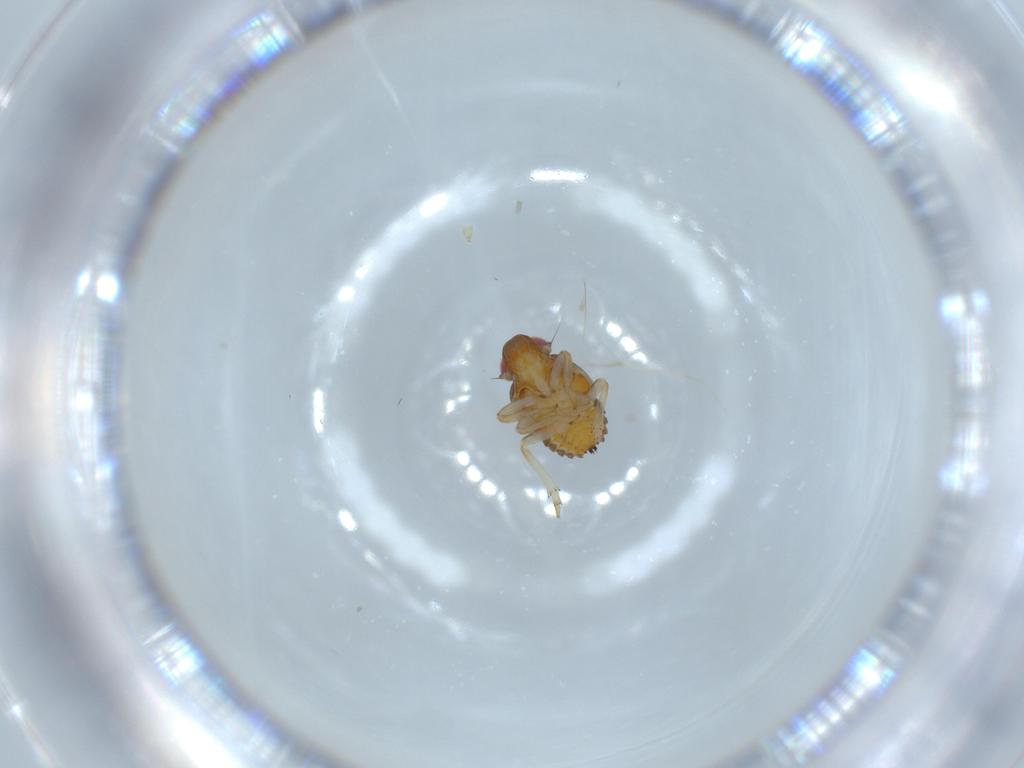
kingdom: Animalia
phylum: Arthropoda
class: Insecta
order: Hemiptera
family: Issidae
